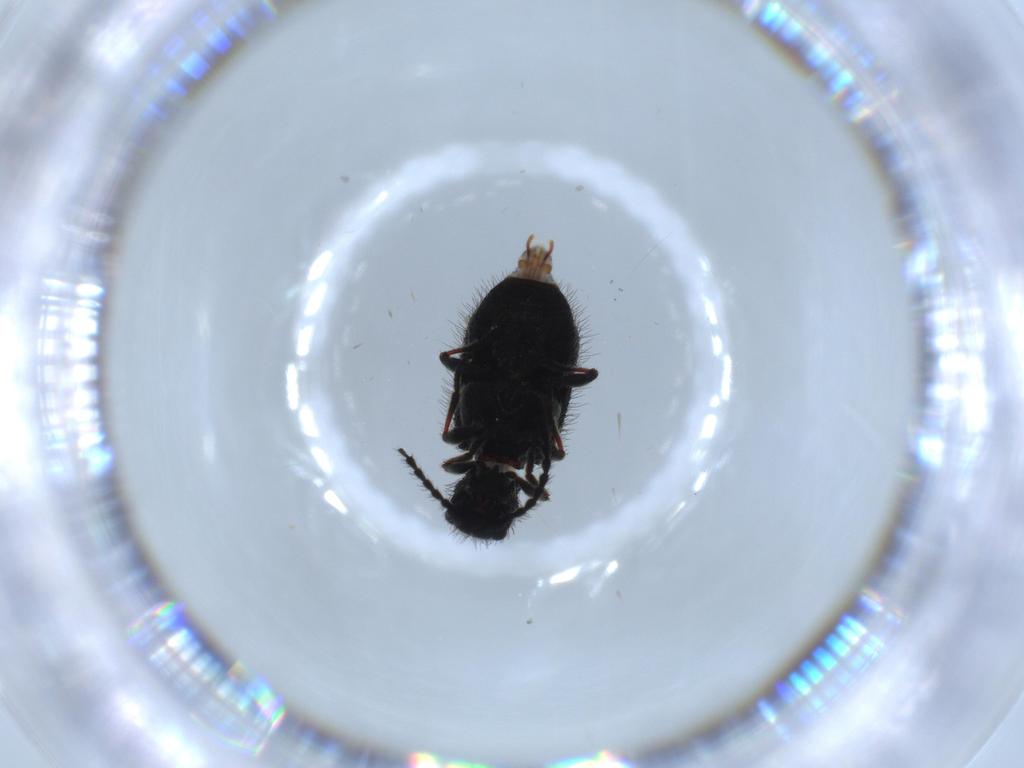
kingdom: Animalia
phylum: Arthropoda
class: Insecta
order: Coleoptera
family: Ptinidae
